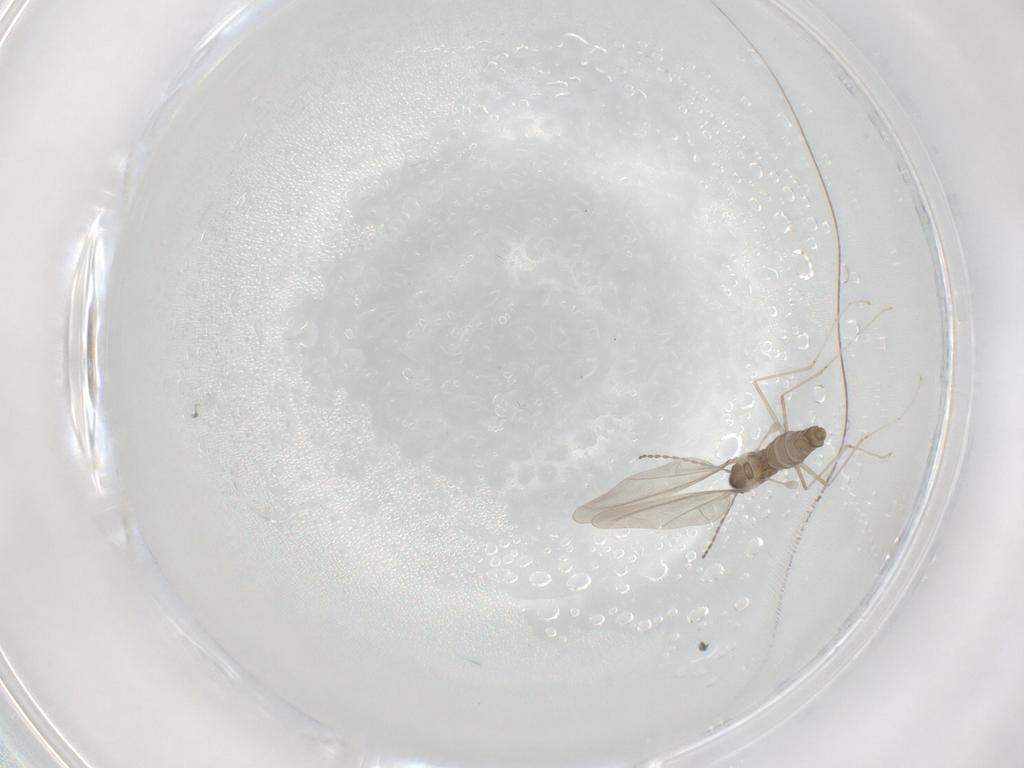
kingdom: Animalia
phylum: Arthropoda
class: Insecta
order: Diptera
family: Cecidomyiidae
